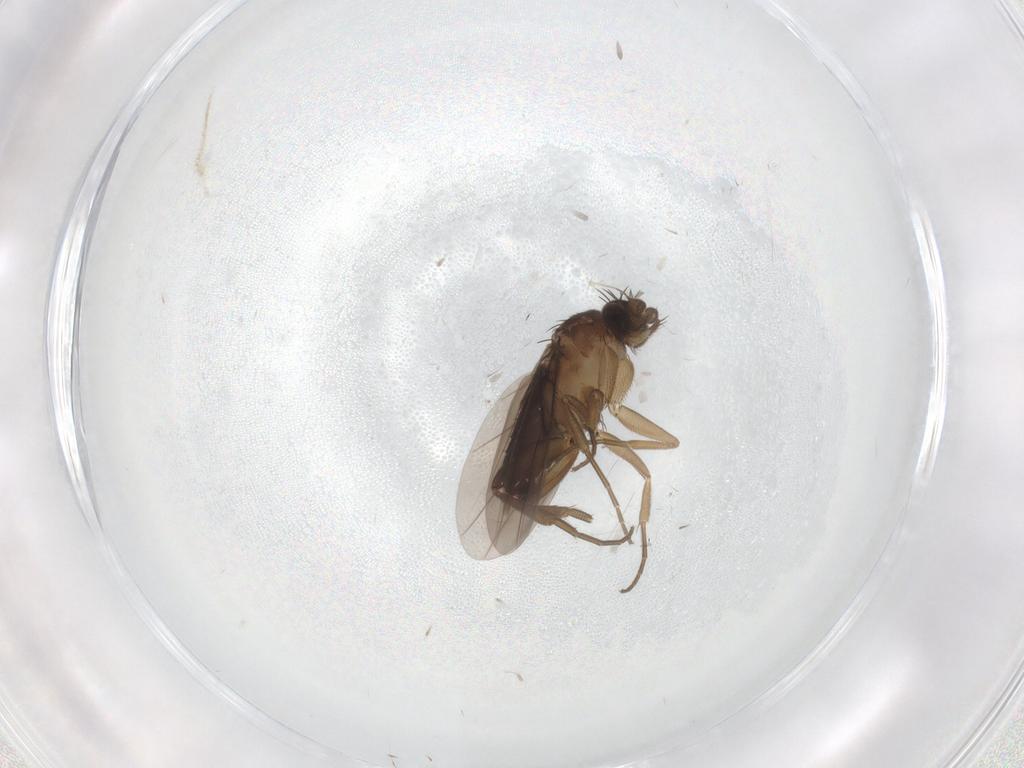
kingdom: Animalia
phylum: Arthropoda
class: Insecta
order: Diptera
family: Phoridae
